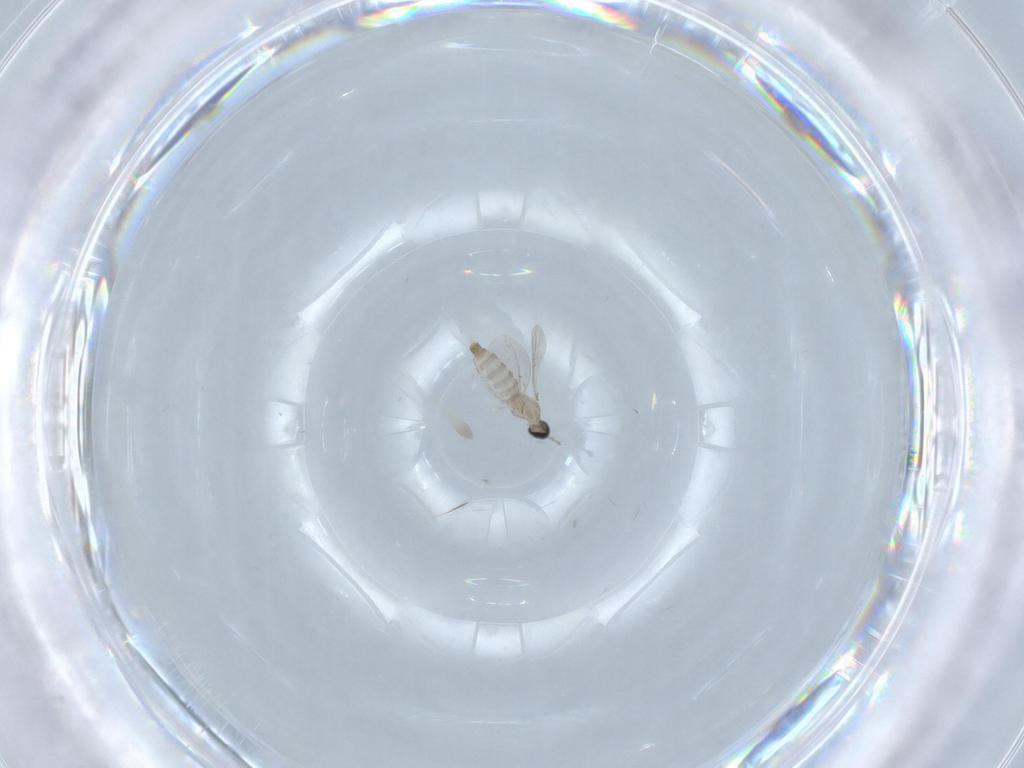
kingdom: Animalia
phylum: Arthropoda
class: Insecta
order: Diptera
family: Cecidomyiidae
